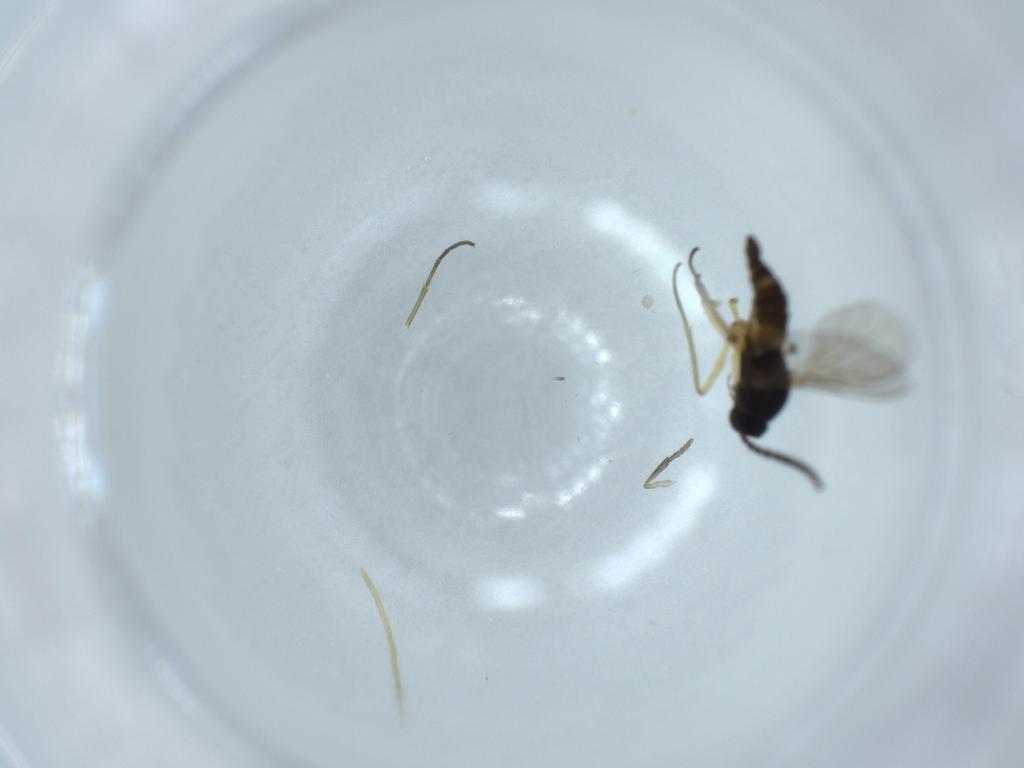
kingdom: Animalia
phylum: Arthropoda
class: Insecta
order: Diptera
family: Sciaridae
